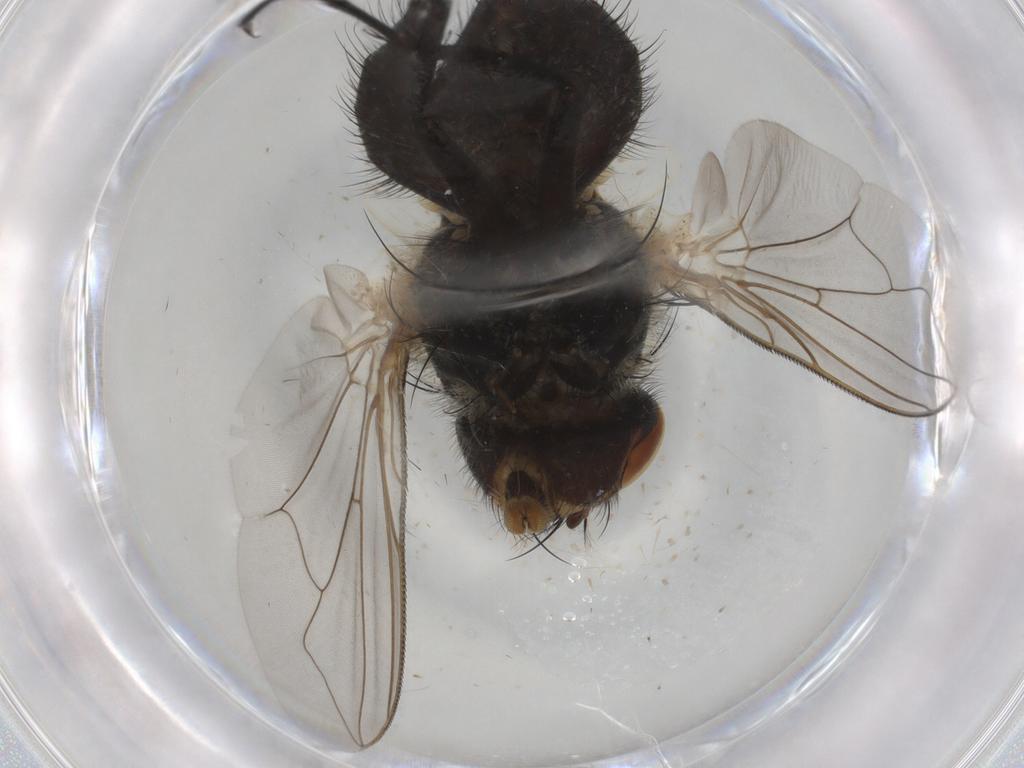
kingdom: Animalia
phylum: Arthropoda
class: Insecta
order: Diptera
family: Polleniidae
